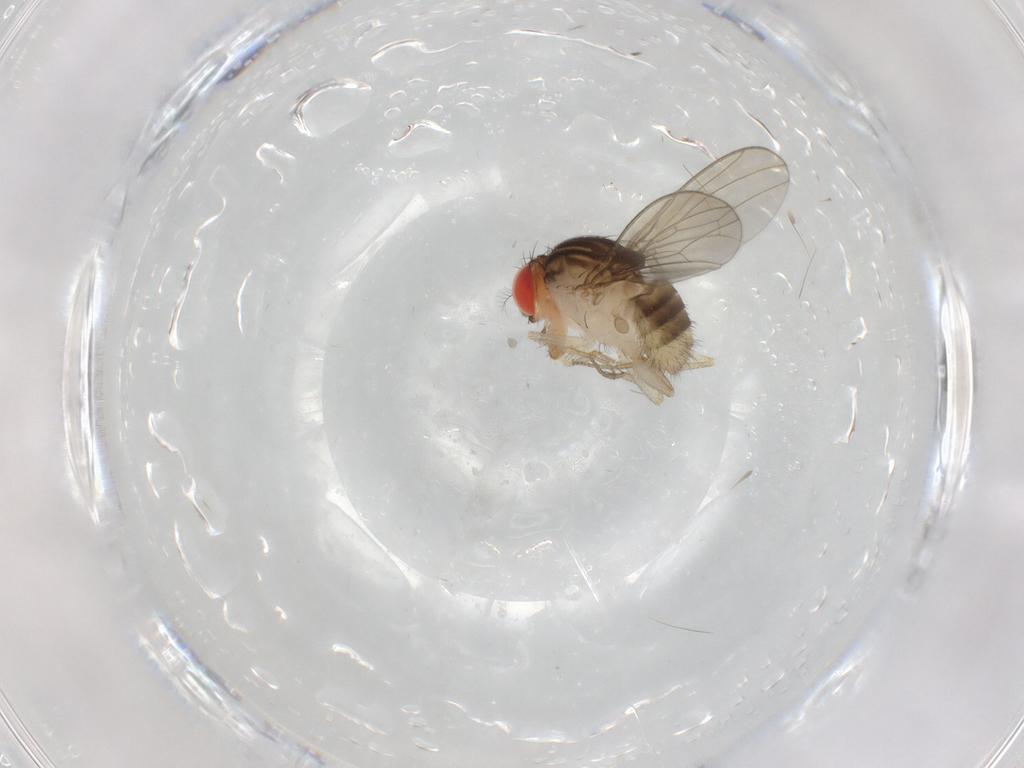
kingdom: Animalia
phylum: Arthropoda
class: Insecta
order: Diptera
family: Drosophilidae
